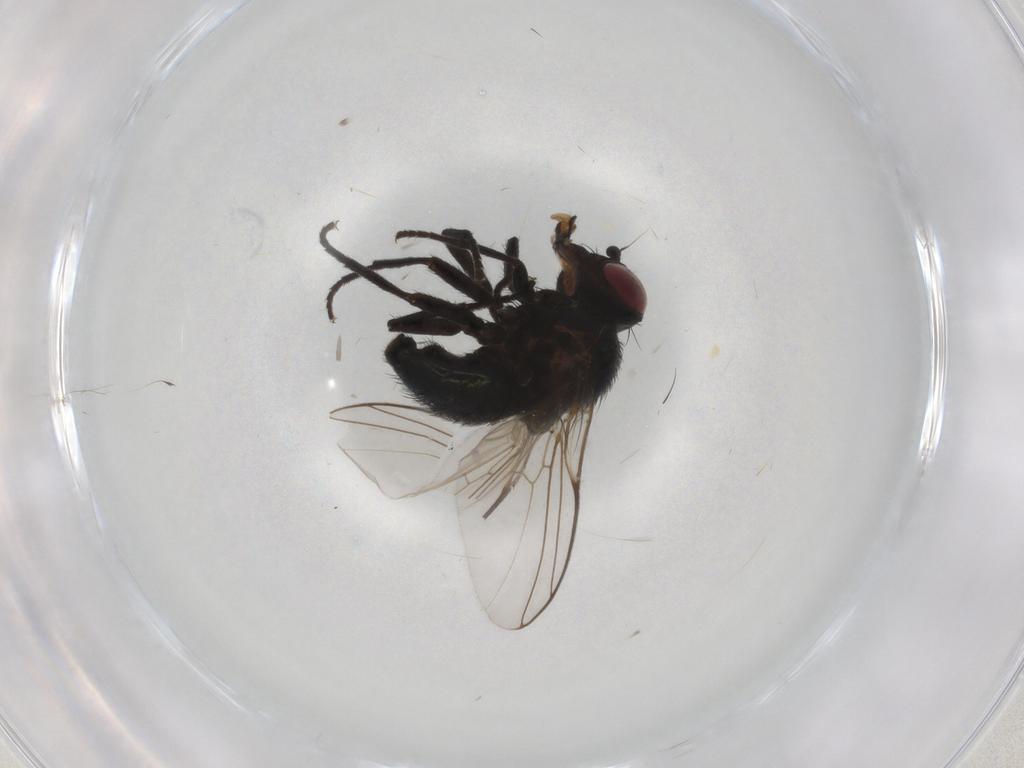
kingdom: Animalia
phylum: Arthropoda
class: Insecta
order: Diptera
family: Agromyzidae
